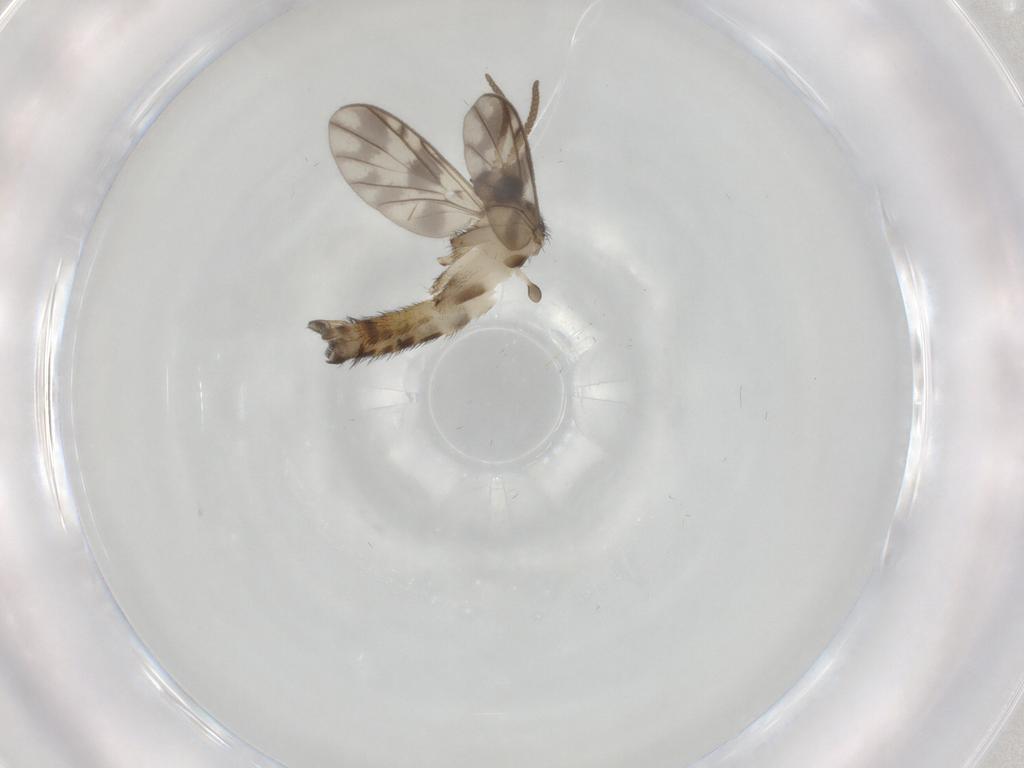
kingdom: Animalia
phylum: Arthropoda
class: Insecta
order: Diptera
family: Keroplatidae
